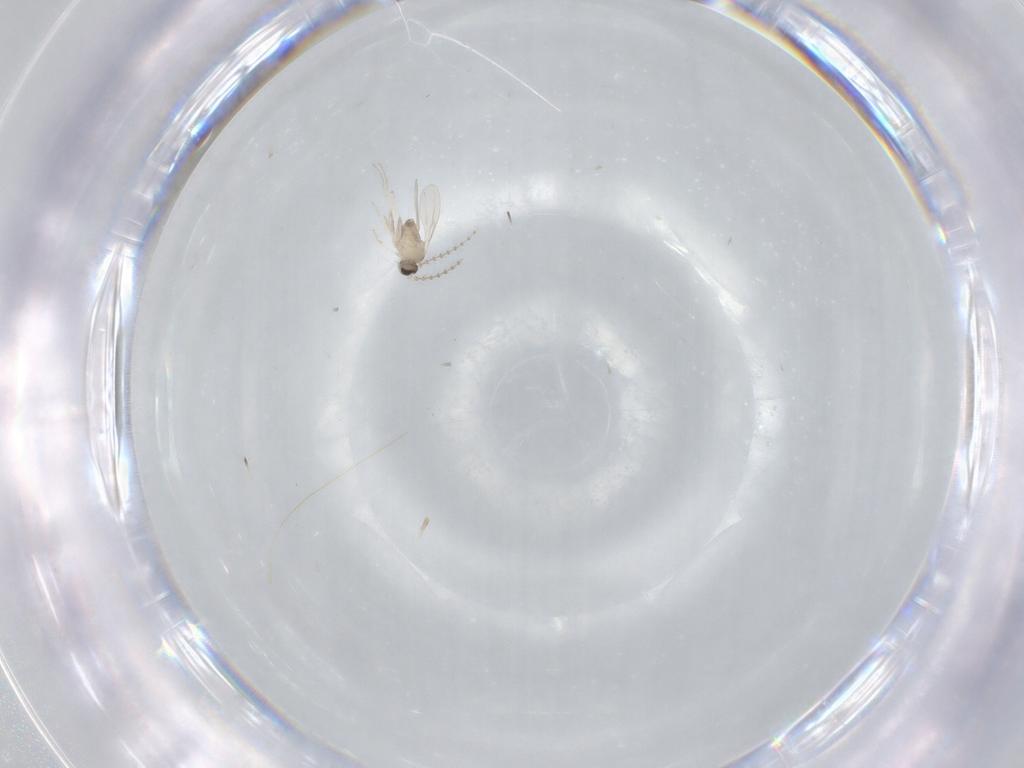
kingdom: Animalia
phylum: Arthropoda
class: Insecta
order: Diptera
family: Cecidomyiidae
